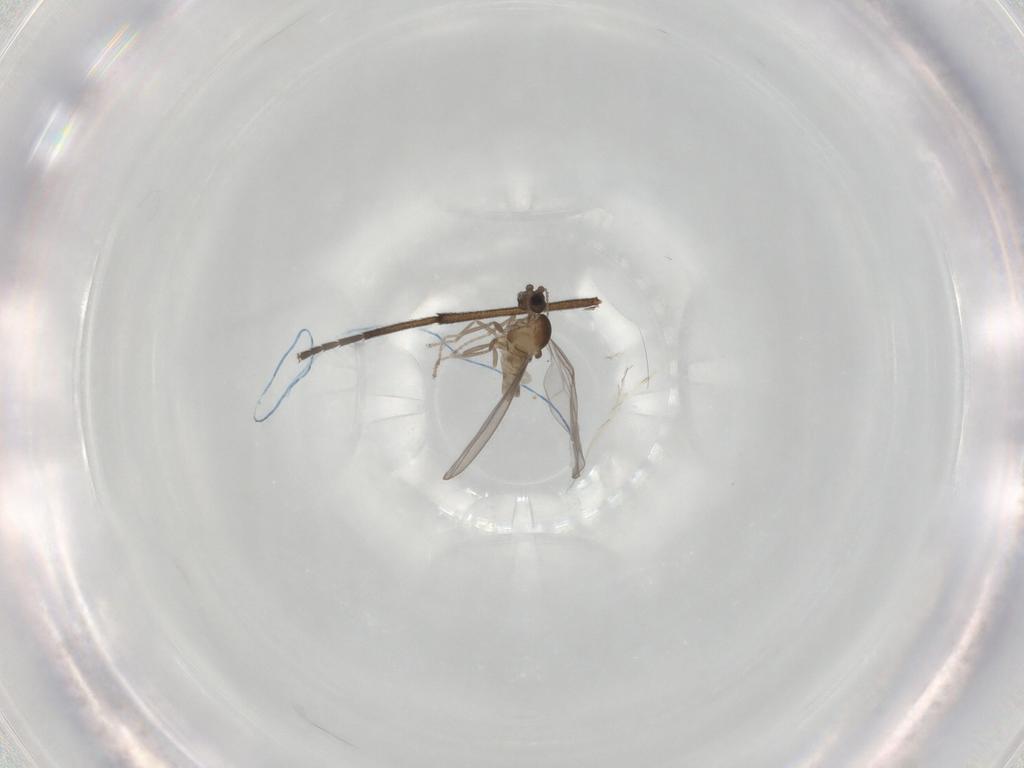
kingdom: Animalia
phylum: Arthropoda
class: Insecta
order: Diptera
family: Cecidomyiidae
